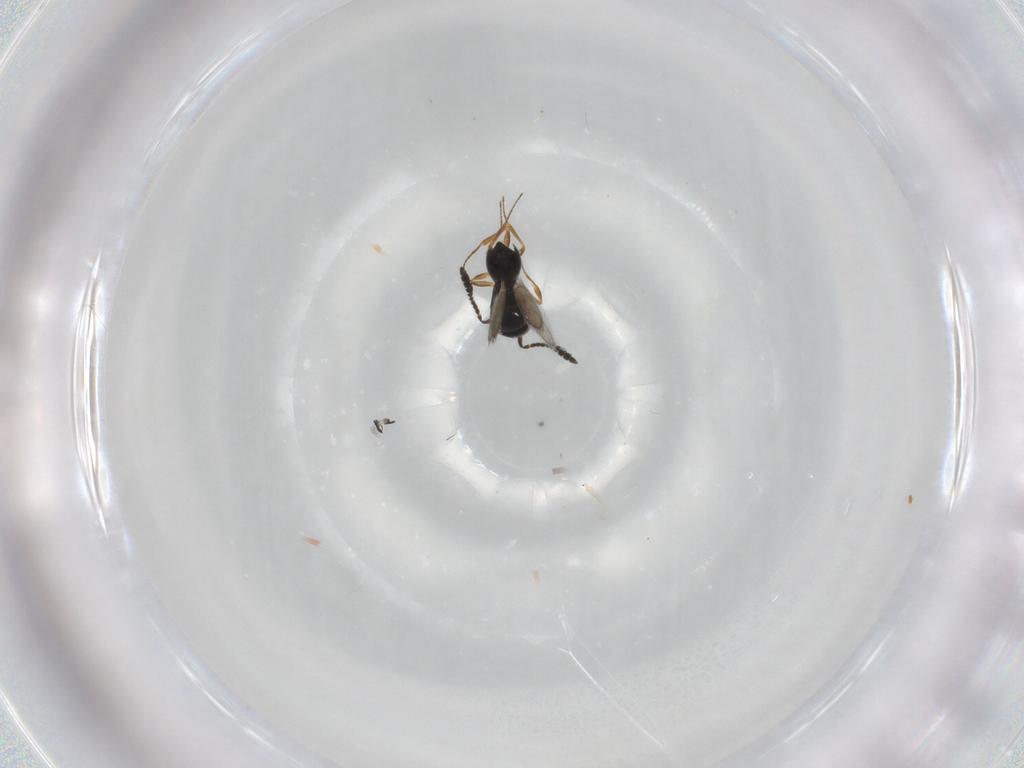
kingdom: Animalia
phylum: Arthropoda
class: Insecta
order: Hymenoptera
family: Scelionidae
